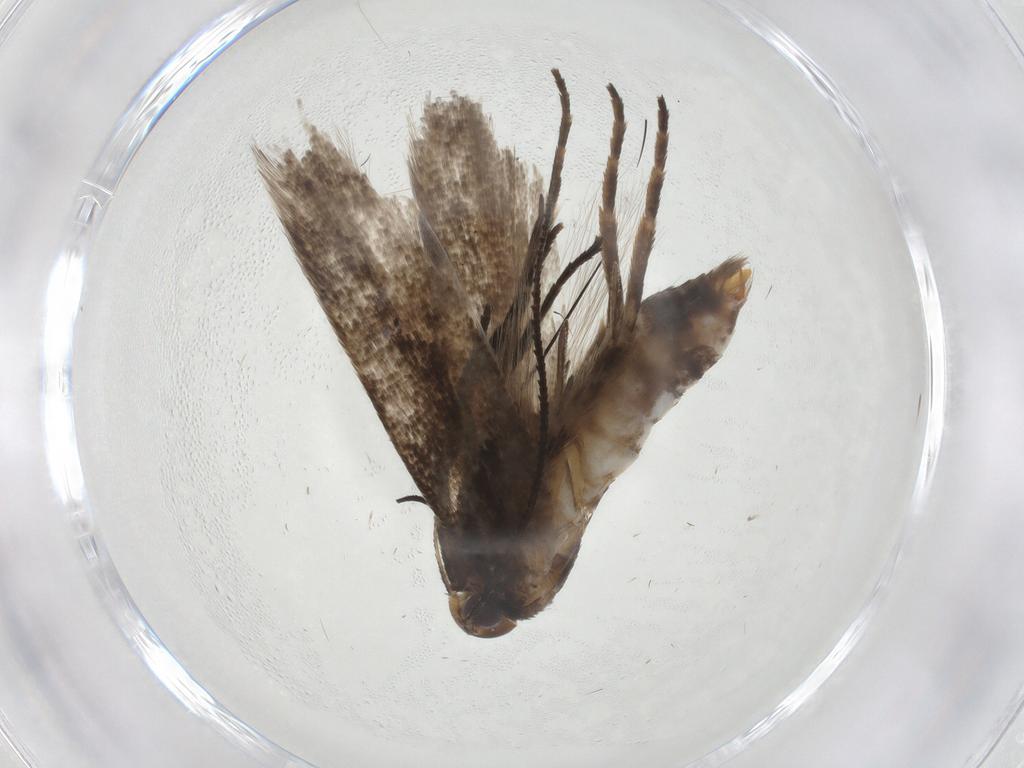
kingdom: Animalia
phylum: Arthropoda
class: Insecta
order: Lepidoptera
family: Gelechiidae
